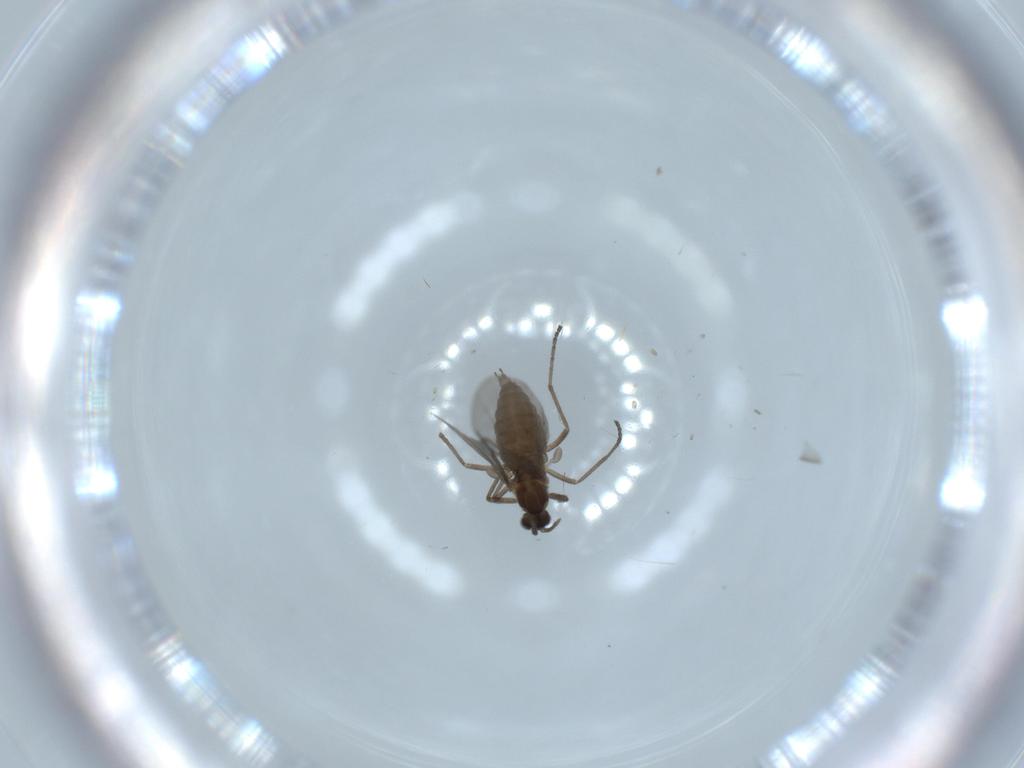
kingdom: Animalia
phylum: Arthropoda
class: Insecta
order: Diptera
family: Cecidomyiidae
